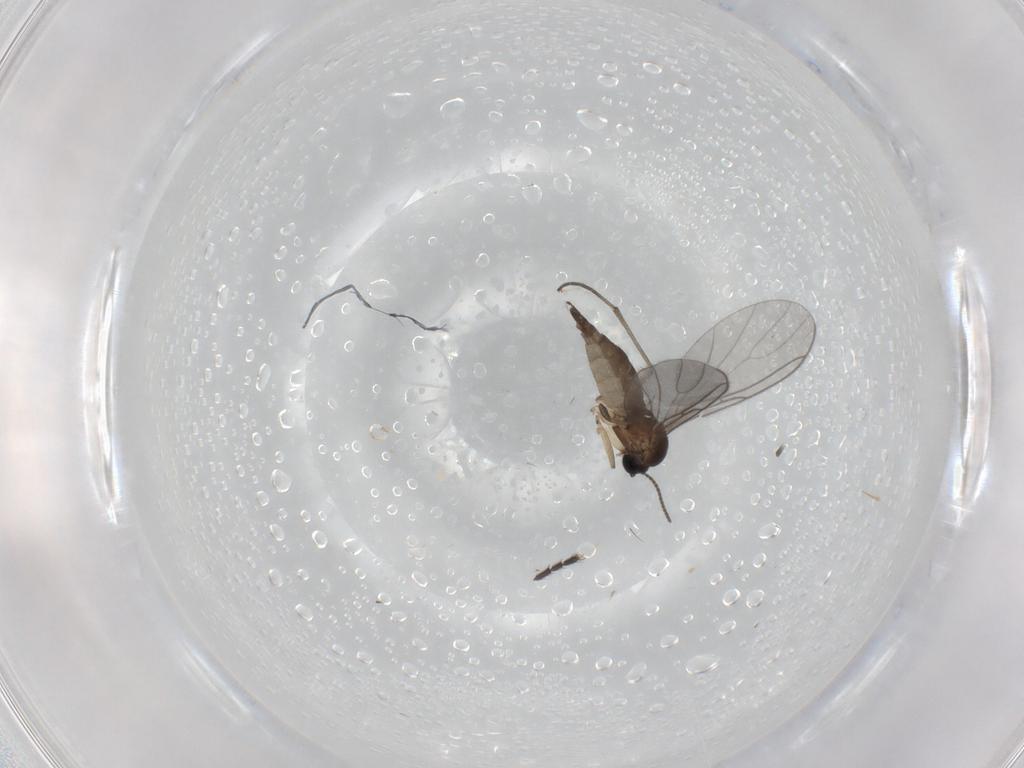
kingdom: Animalia
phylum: Arthropoda
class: Insecta
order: Diptera
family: Sciaridae
